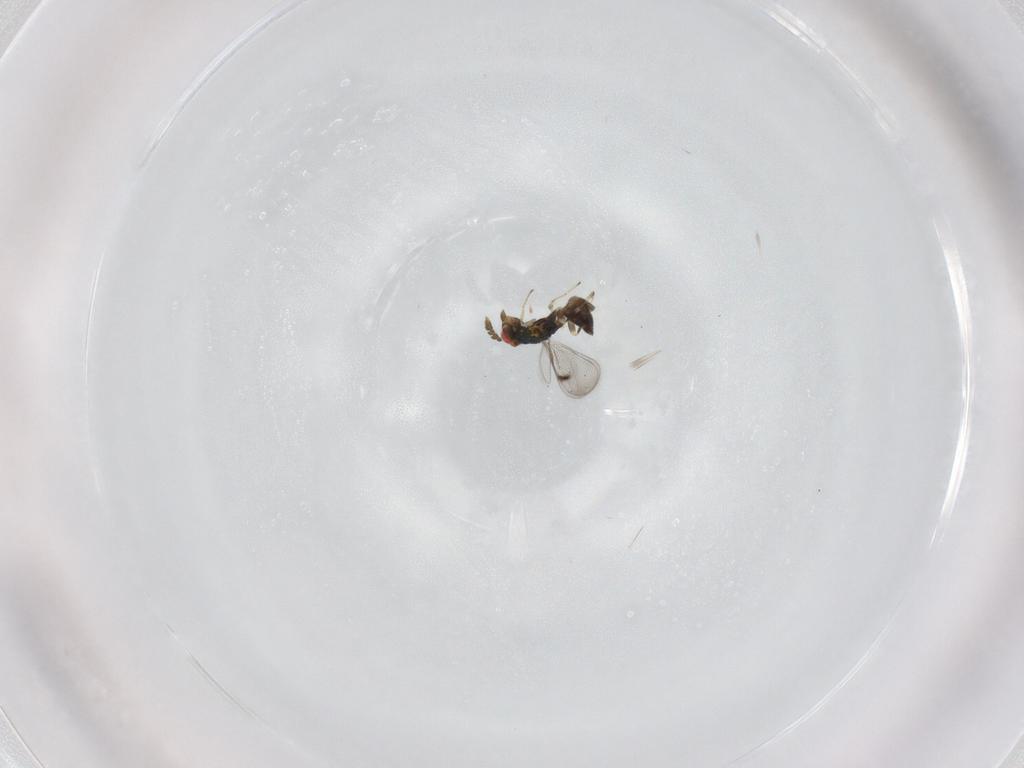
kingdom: Animalia
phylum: Arthropoda
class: Insecta
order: Hymenoptera
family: Eulophidae
